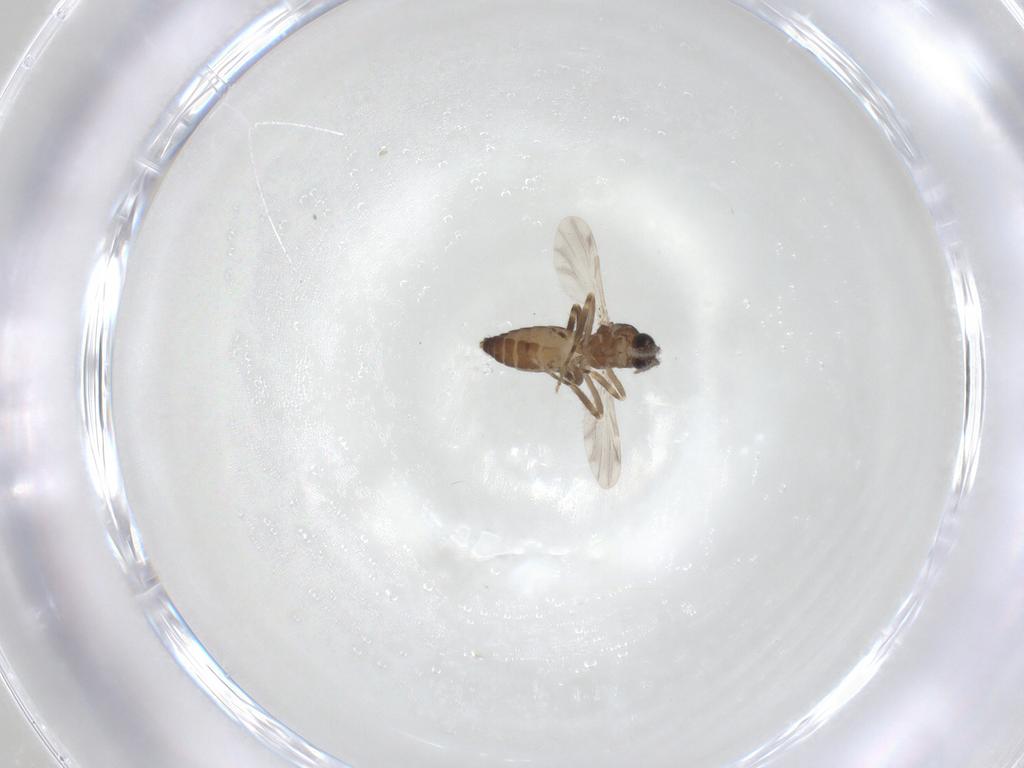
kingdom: Animalia
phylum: Arthropoda
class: Insecta
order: Diptera
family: Ceratopogonidae
